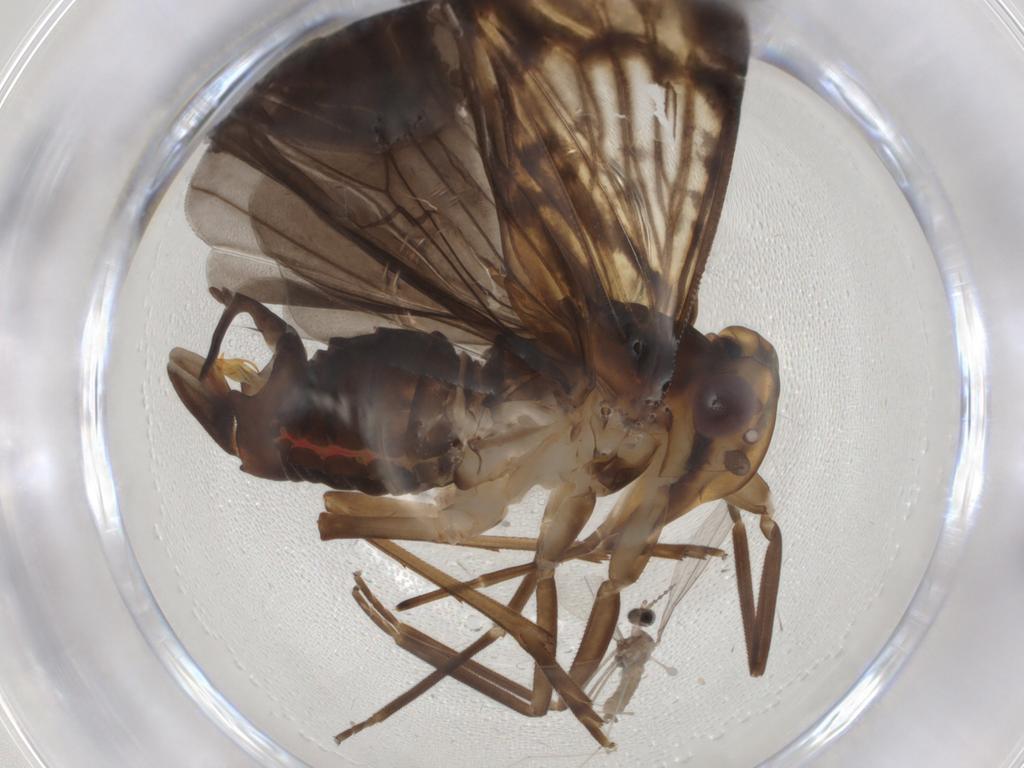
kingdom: Animalia
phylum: Arthropoda
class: Insecta
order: Hemiptera
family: Cixiidae
